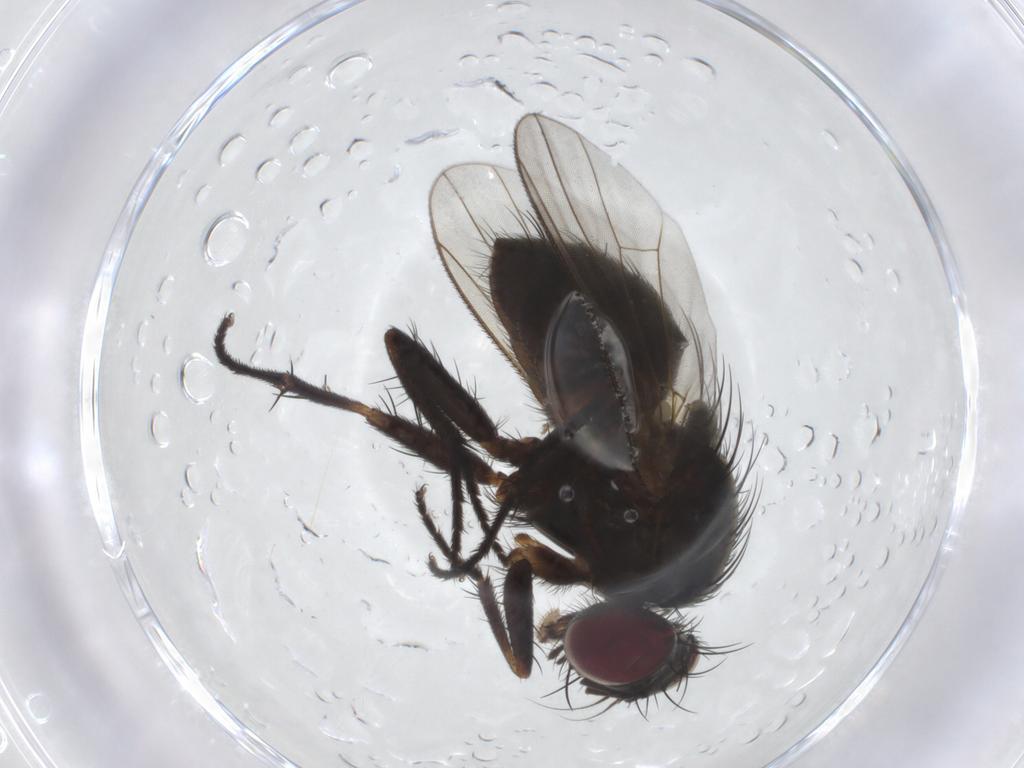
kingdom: Animalia
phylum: Arthropoda
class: Insecta
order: Diptera
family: Muscidae
